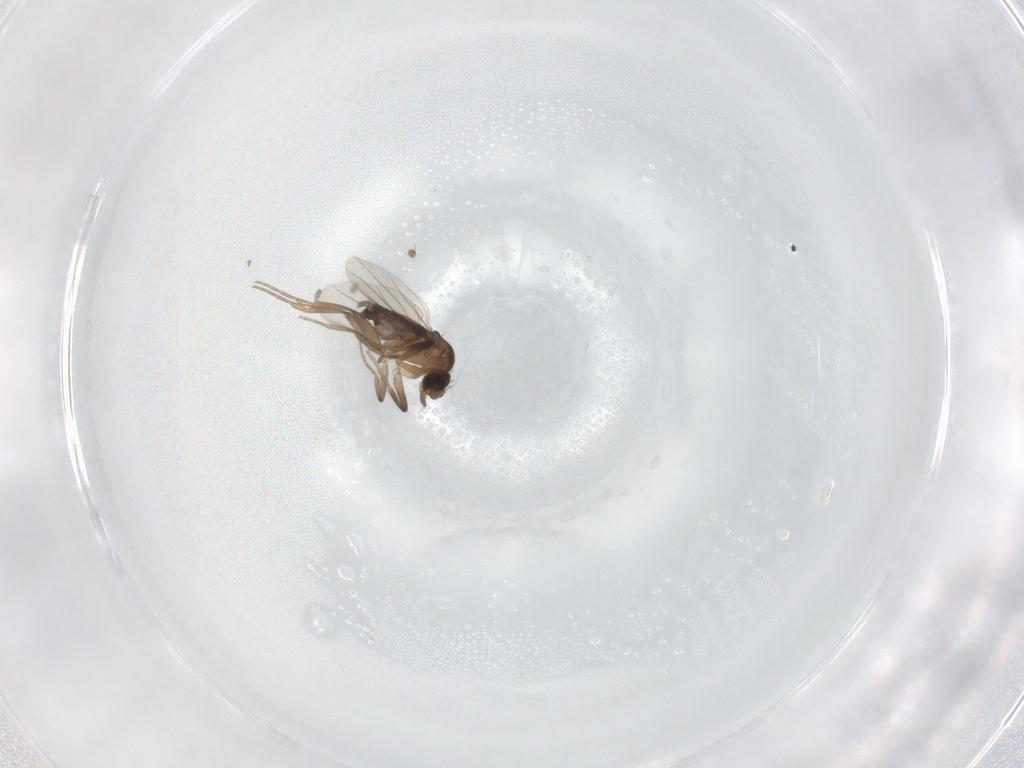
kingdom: Animalia
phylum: Arthropoda
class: Insecta
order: Diptera
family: Phoridae
